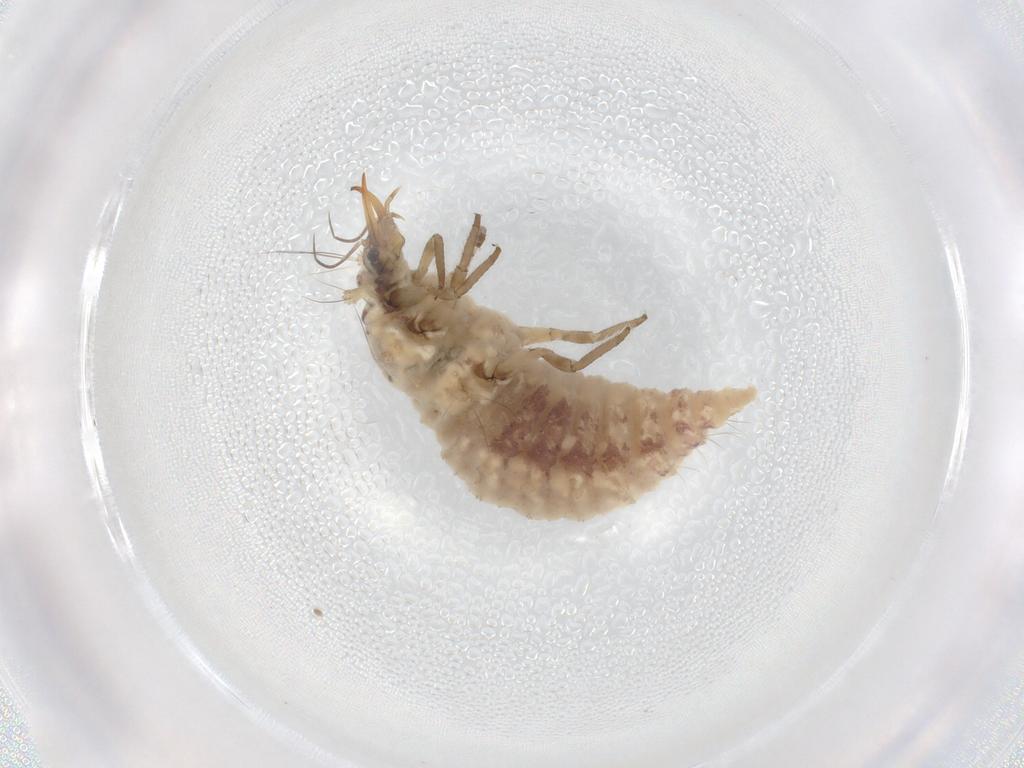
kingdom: Animalia
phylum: Arthropoda
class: Insecta
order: Neuroptera
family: Chrysopidae
